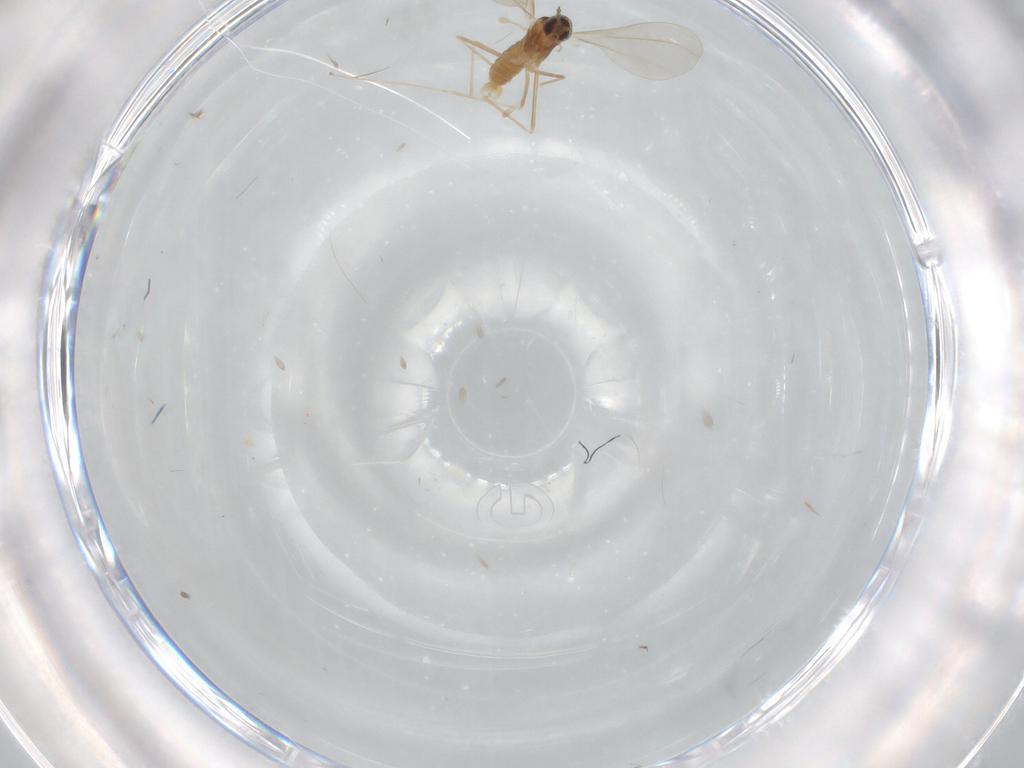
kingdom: Animalia
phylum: Arthropoda
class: Insecta
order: Diptera
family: Cecidomyiidae
